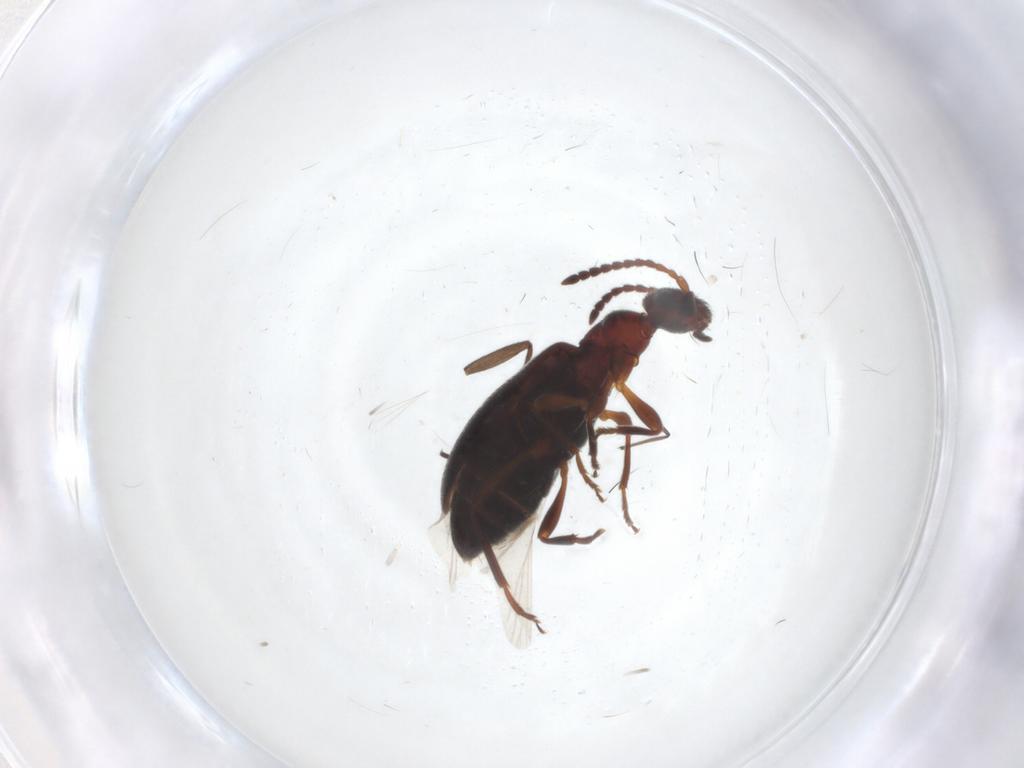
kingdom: Animalia
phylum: Arthropoda
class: Insecta
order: Coleoptera
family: Anthicidae
